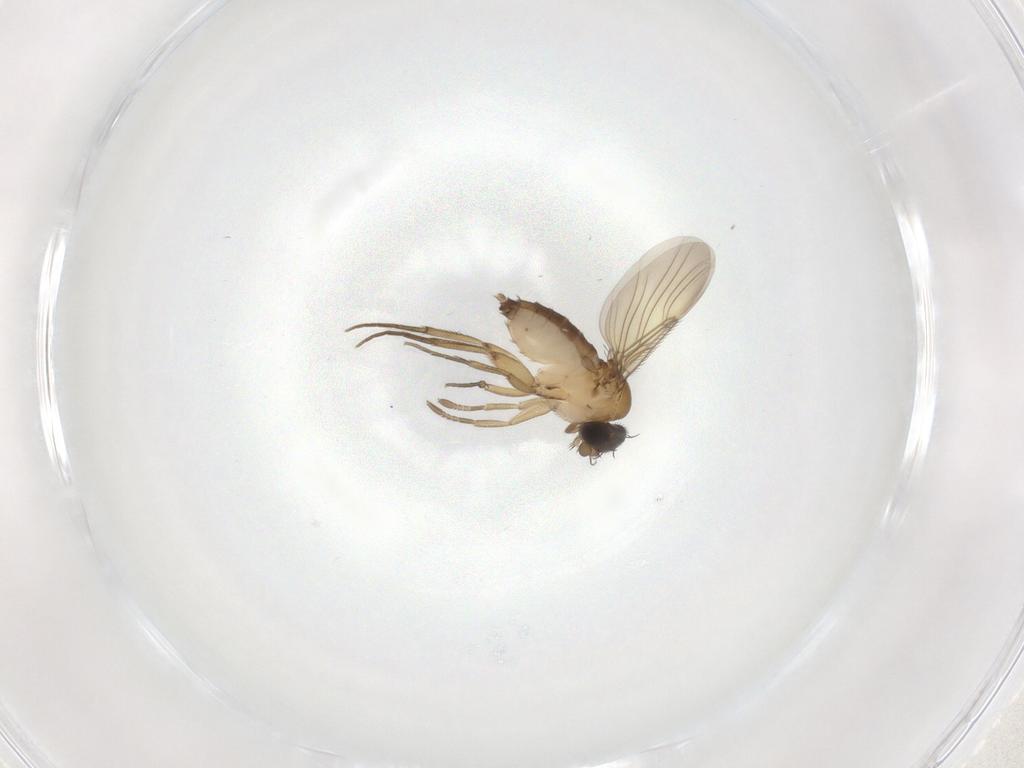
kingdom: Animalia
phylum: Arthropoda
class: Insecta
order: Diptera
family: Phoridae
